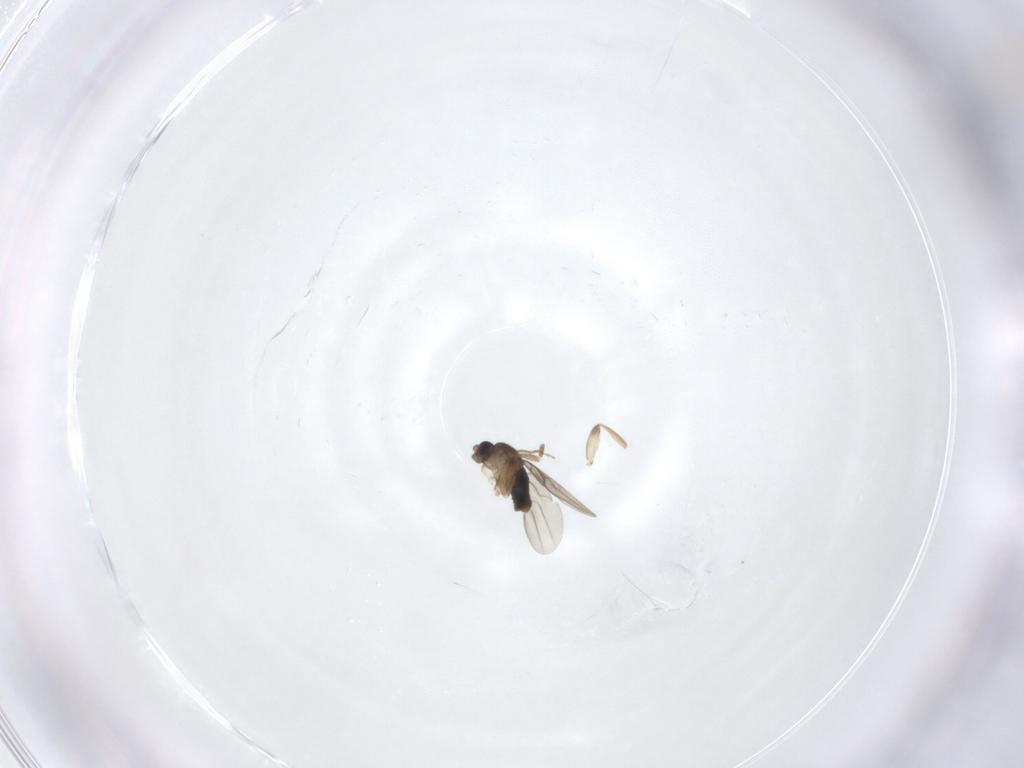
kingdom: Animalia
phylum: Arthropoda
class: Insecta
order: Diptera
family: Phoridae
